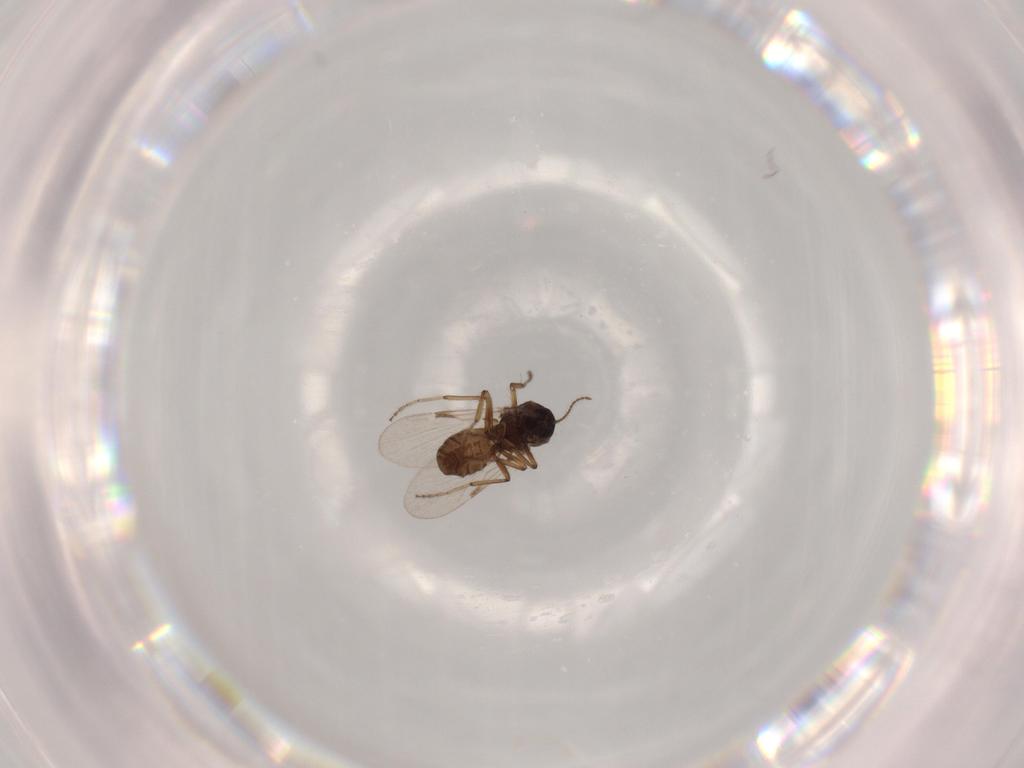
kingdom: Animalia
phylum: Arthropoda
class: Insecta
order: Diptera
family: Chironomidae
